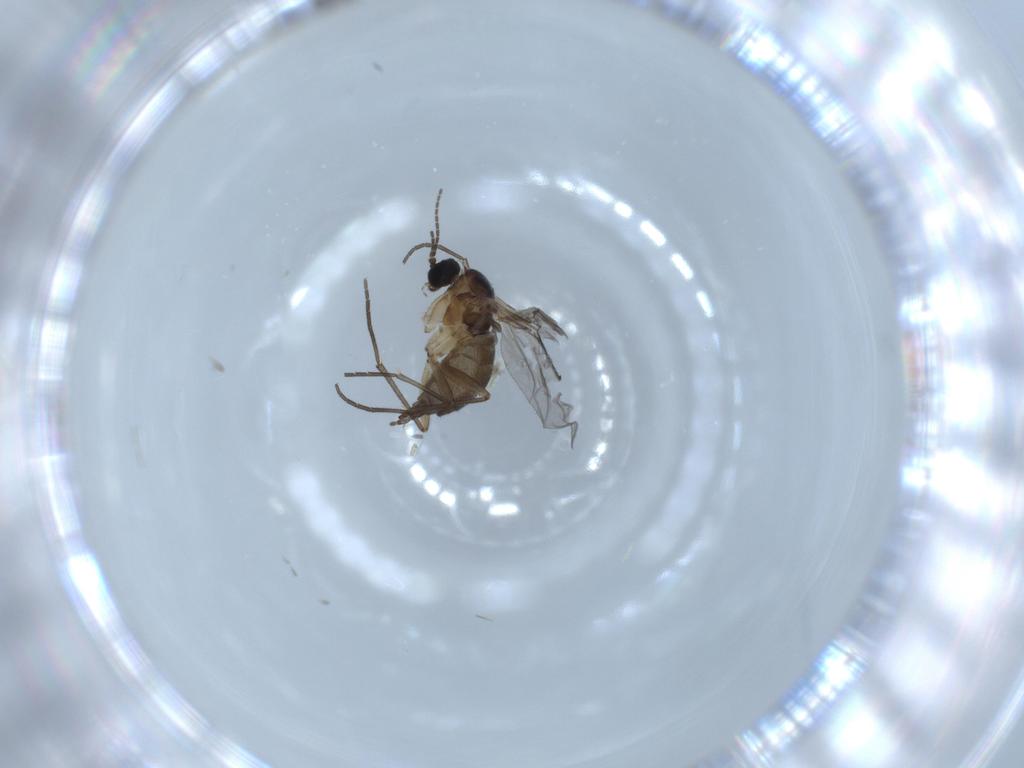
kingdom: Animalia
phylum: Arthropoda
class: Insecta
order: Diptera
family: Sciaridae
